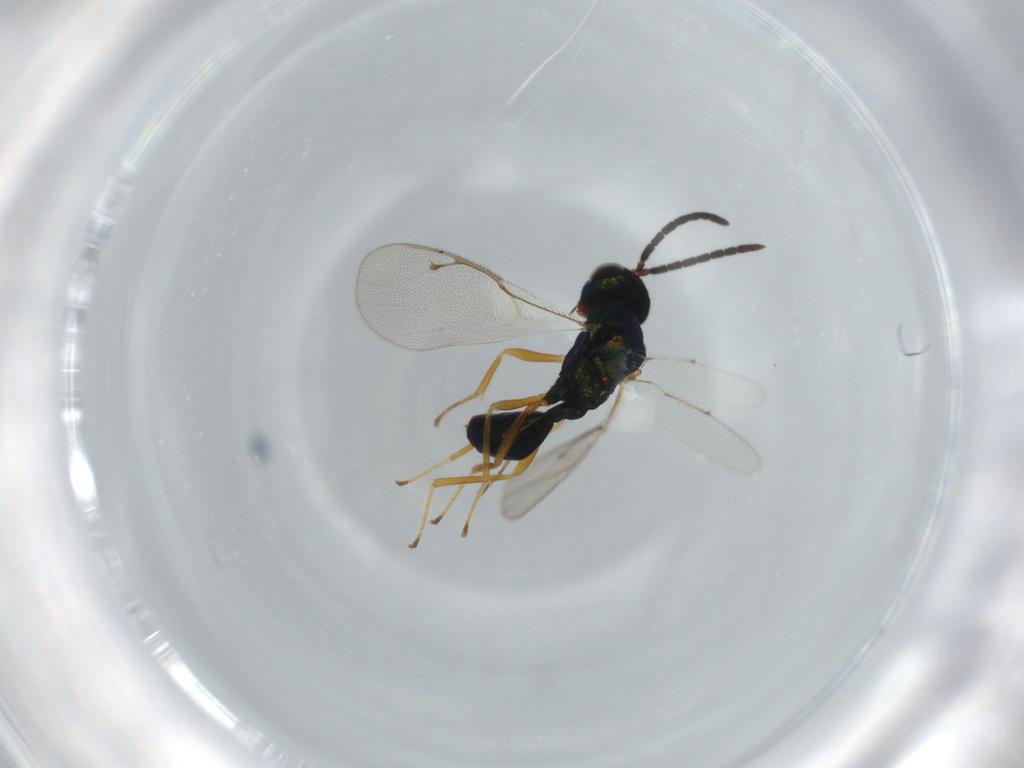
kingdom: Animalia
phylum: Arthropoda
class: Insecta
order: Hymenoptera
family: Pteromalidae
